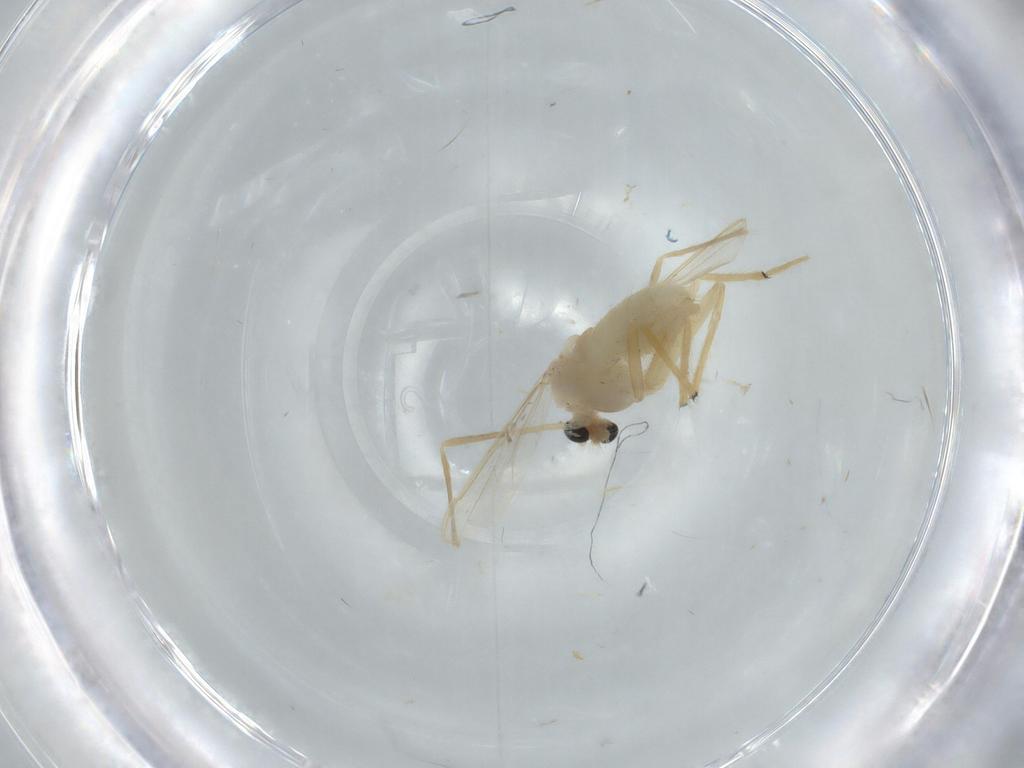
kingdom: Animalia
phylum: Arthropoda
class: Insecta
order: Diptera
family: Chironomidae
